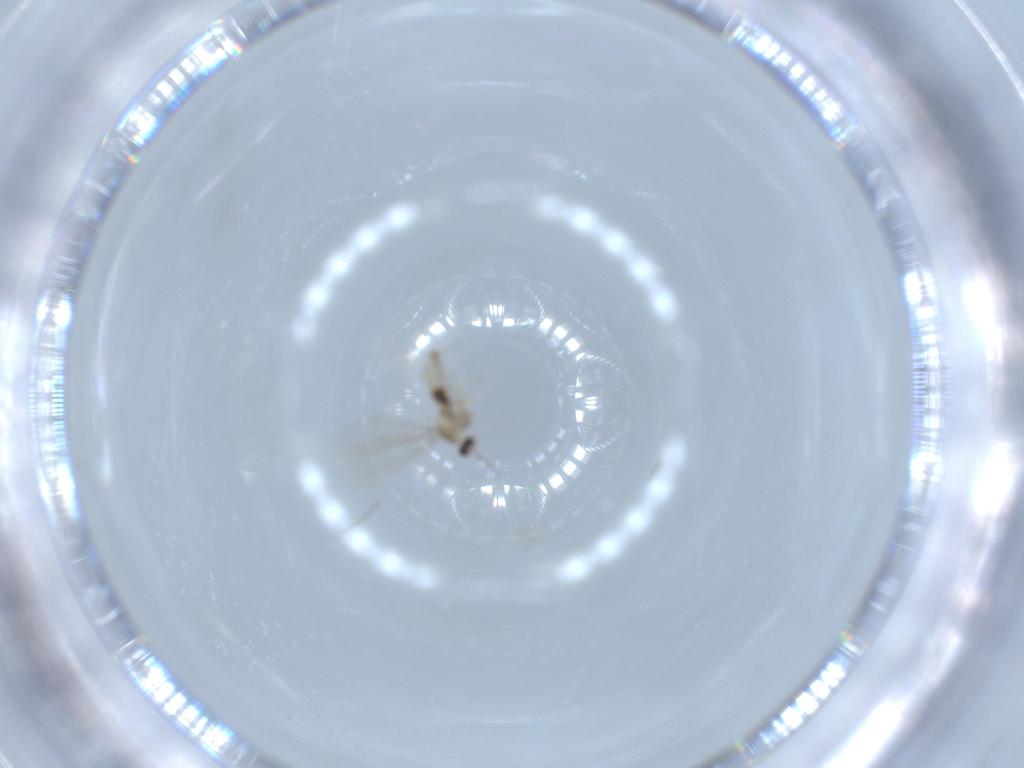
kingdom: Animalia
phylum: Arthropoda
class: Insecta
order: Diptera
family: Cecidomyiidae
